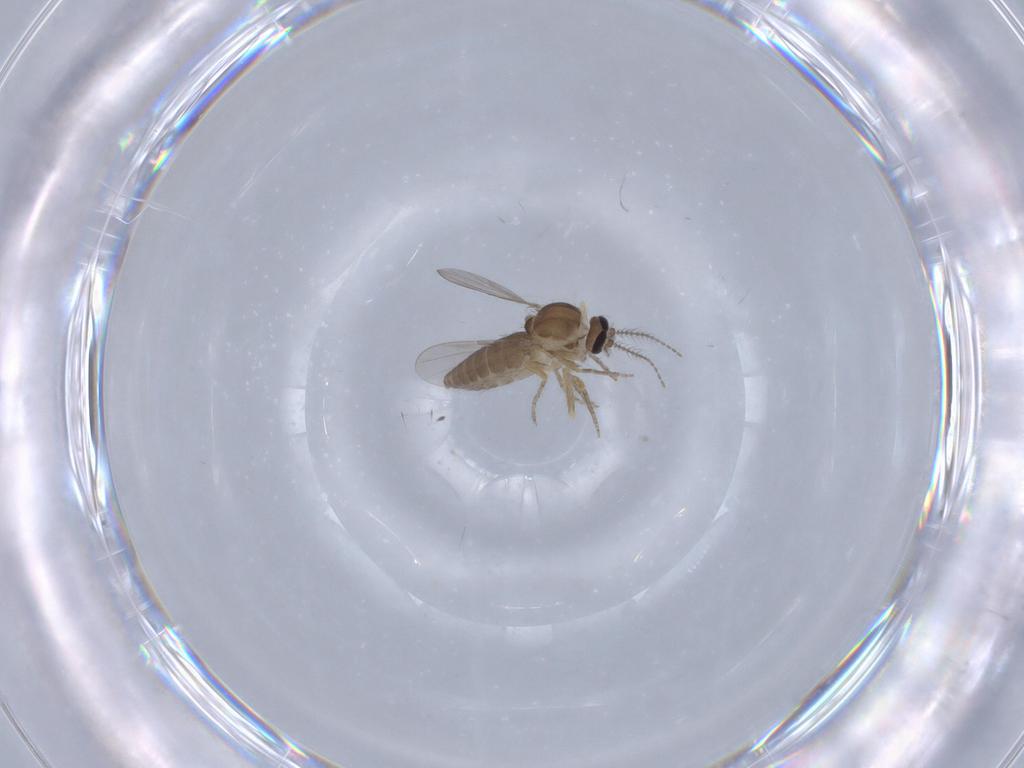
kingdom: Animalia
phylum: Arthropoda
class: Insecta
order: Diptera
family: Ceratopogonidae
